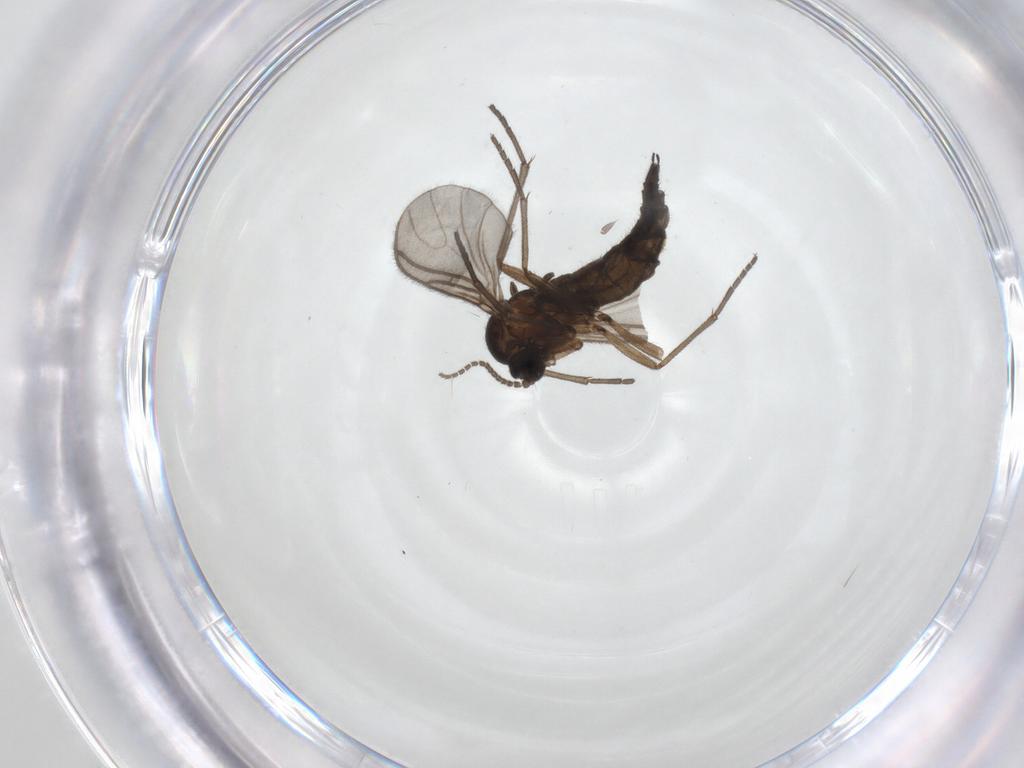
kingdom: Animalia
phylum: Arthropoda
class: Insecta
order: Diptera
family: Sciaridae
